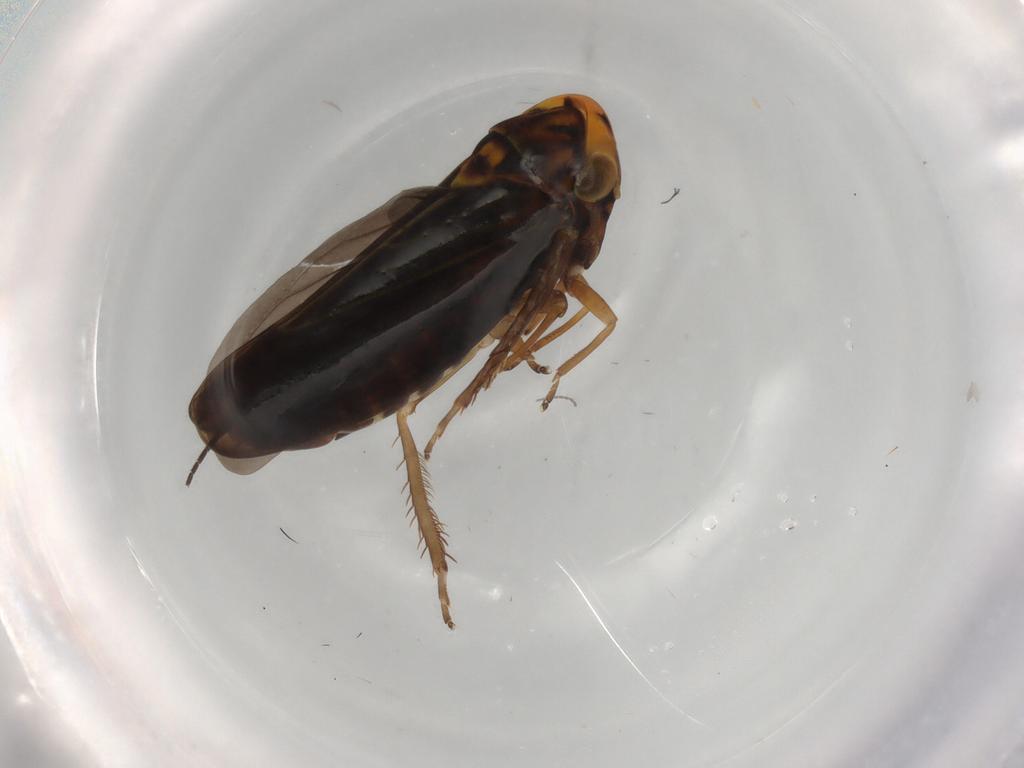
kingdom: Animalia
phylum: Arthropoda
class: Insecta
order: Hemiptera
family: Cicadellidae
